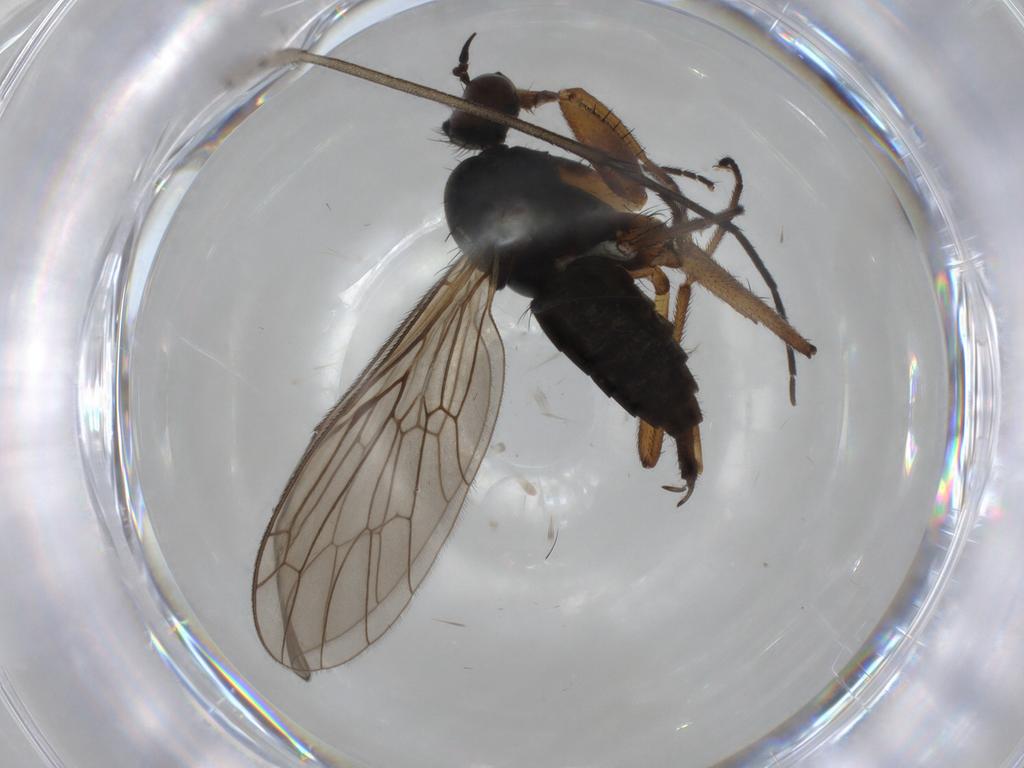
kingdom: Animalia
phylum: Arthropoda
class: Insecta
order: Diptera
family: Mycetophilidae
